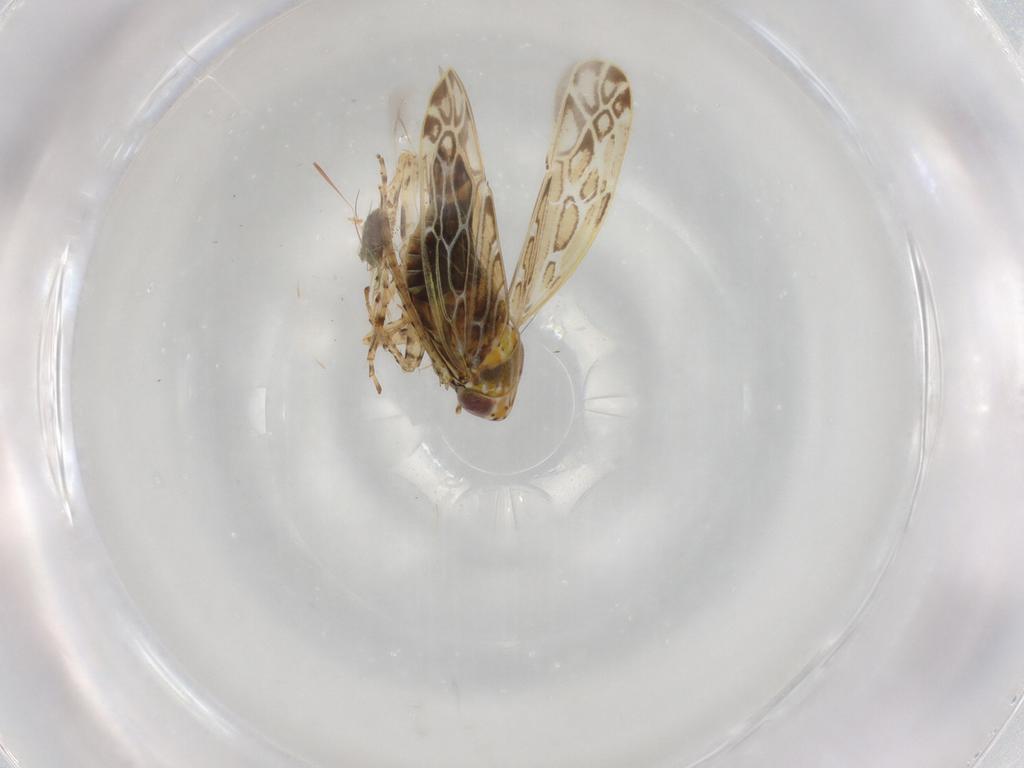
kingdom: Animalia
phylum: Arthropoda
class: Insecta
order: Hemiptera
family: Cicadellidae
